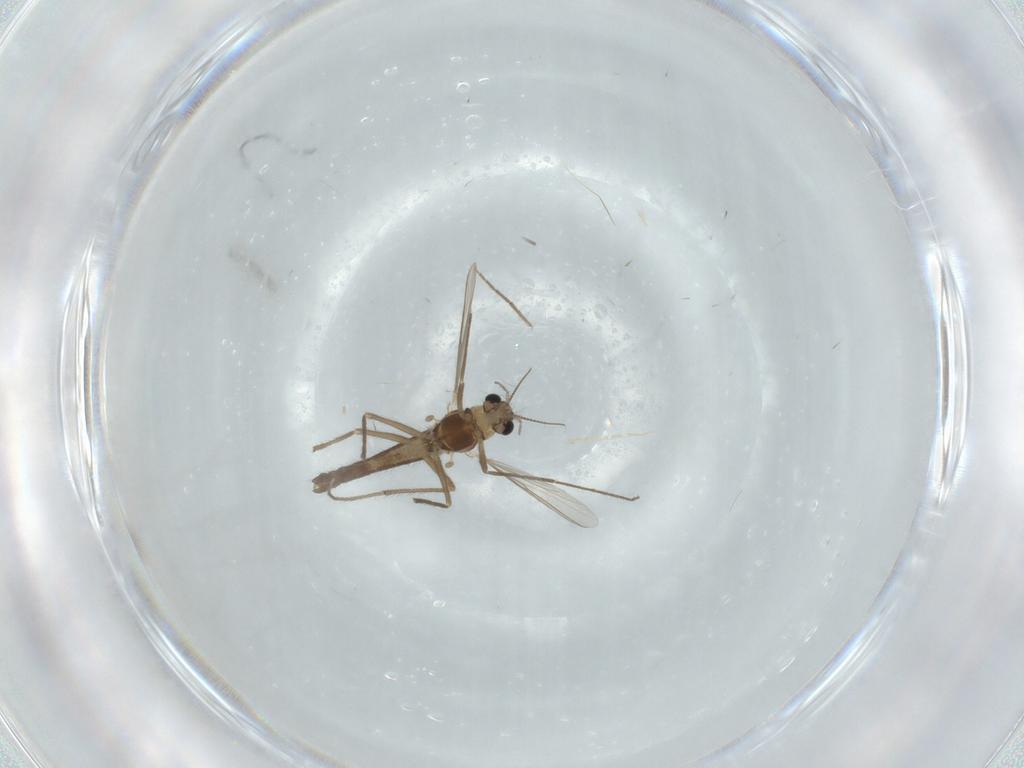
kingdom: Animalia
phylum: Arthropoda
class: Insecta
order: Diptera
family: Chironomidae
